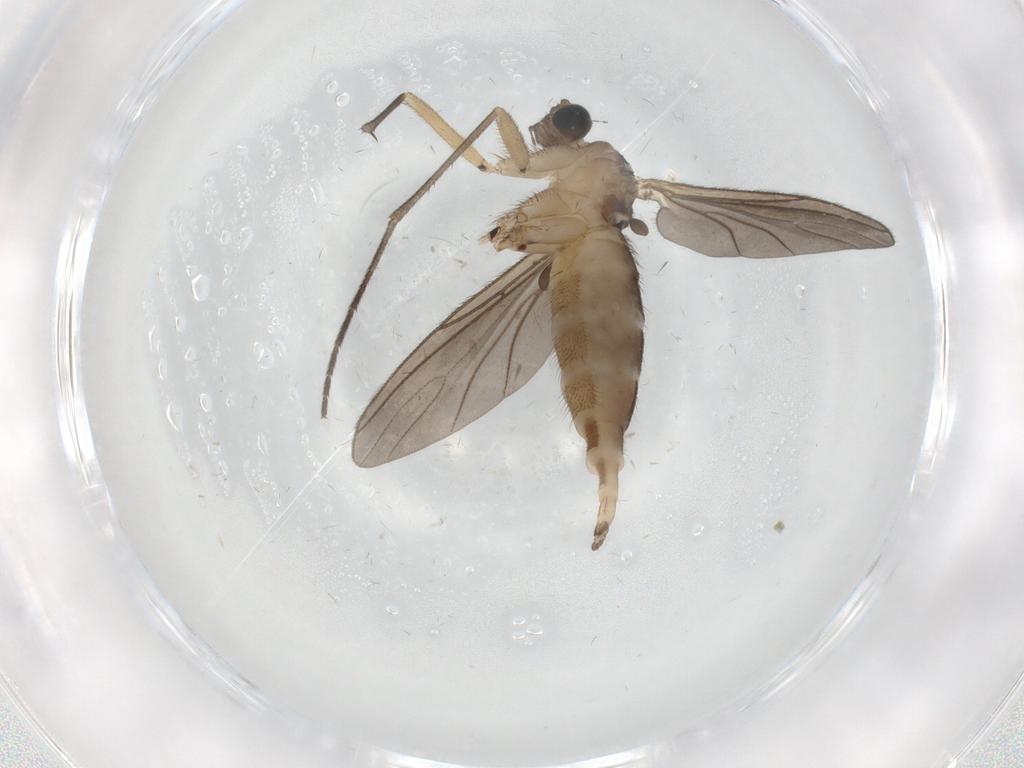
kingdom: Animalia
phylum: Arthropoda
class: Insecta
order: Diptera
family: Sciaridae
